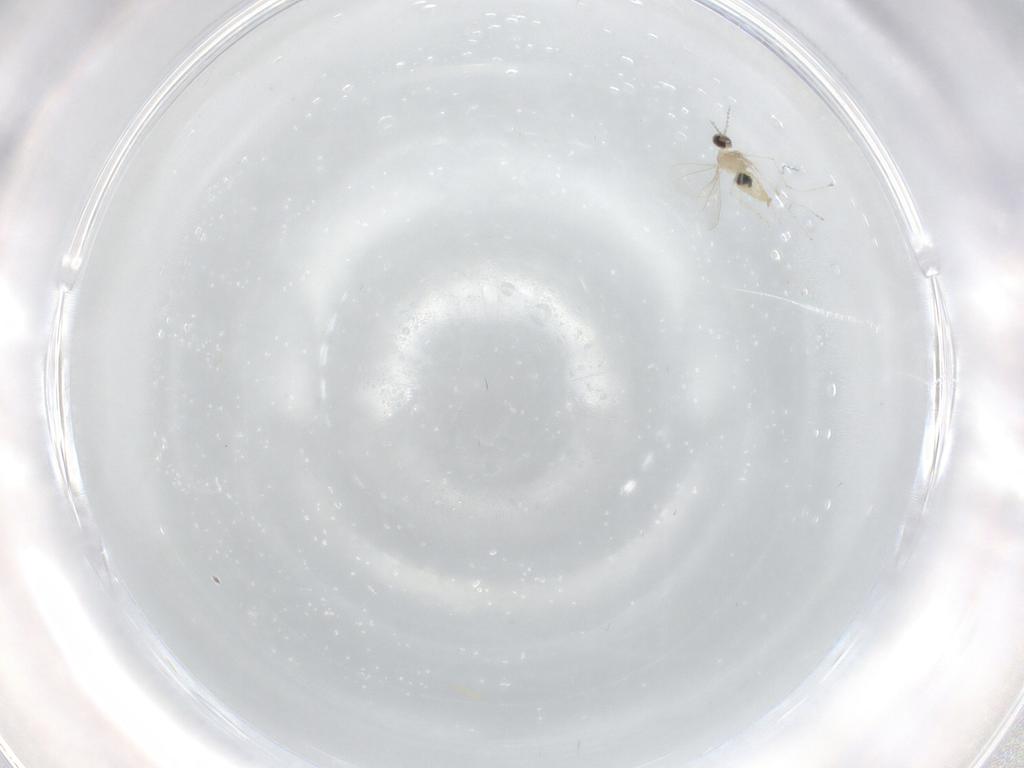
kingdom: Animalia
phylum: Arthropoda
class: Insecta
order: Diptera
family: Cecidomyiidae
